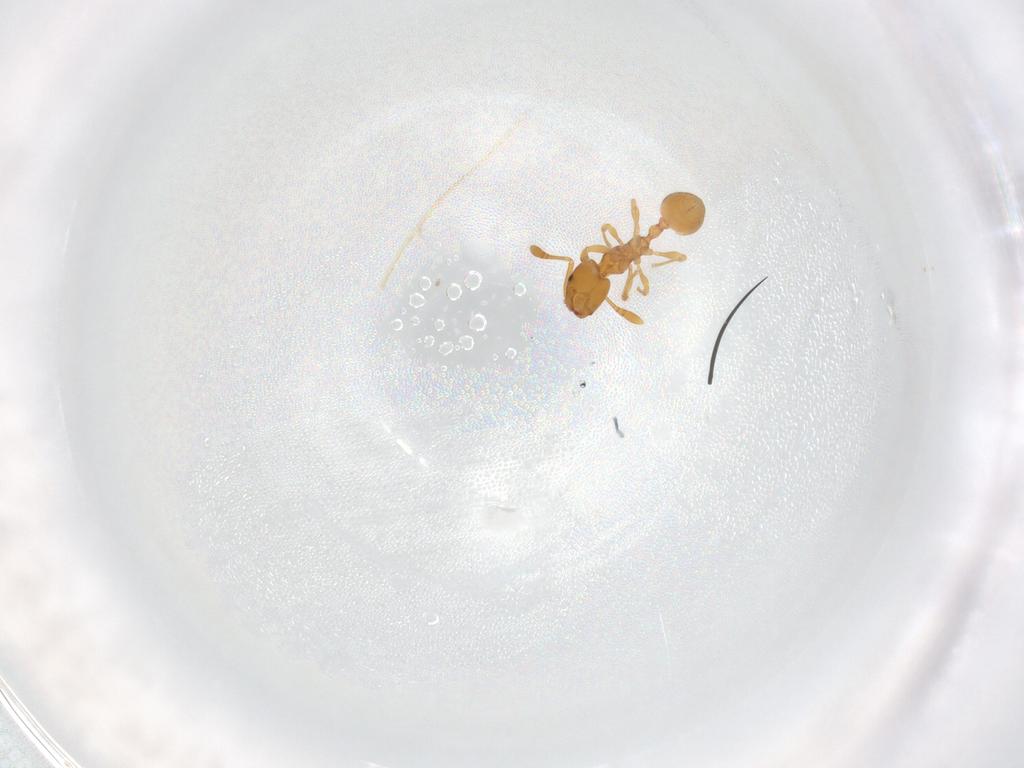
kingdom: Animalia
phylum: Arthropoda
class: Insecta
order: Hymenoptera
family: Formicidae
